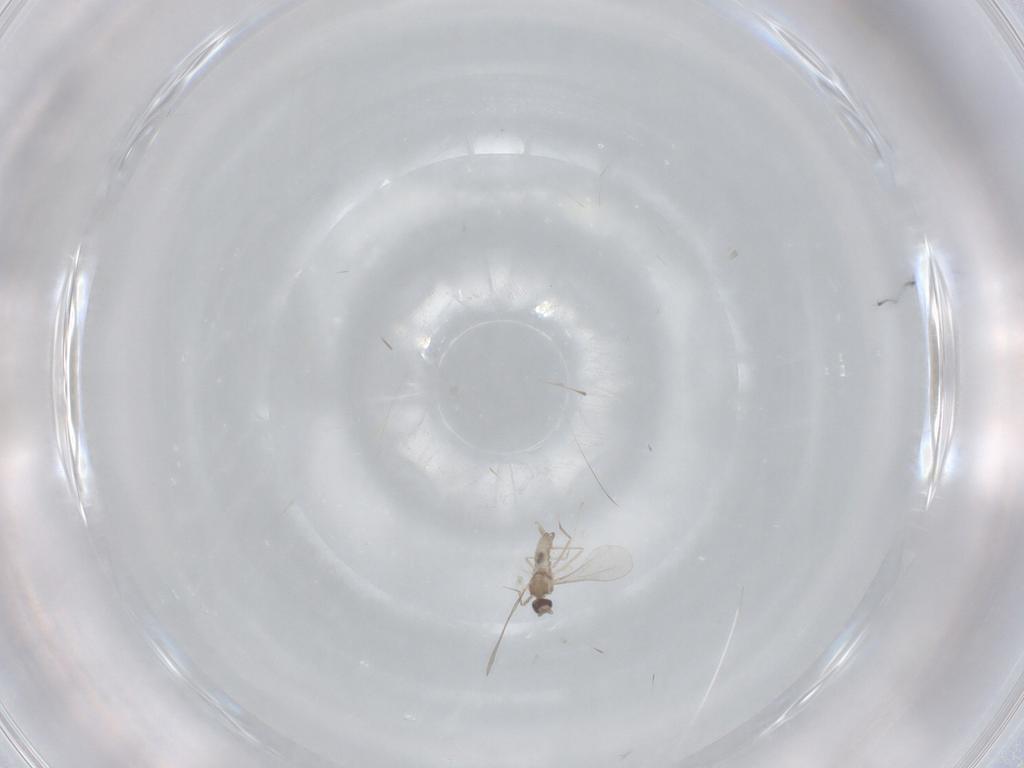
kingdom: Animalia
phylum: Arthropoda
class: Insecta
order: Diptera
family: Cecidomyiidae
